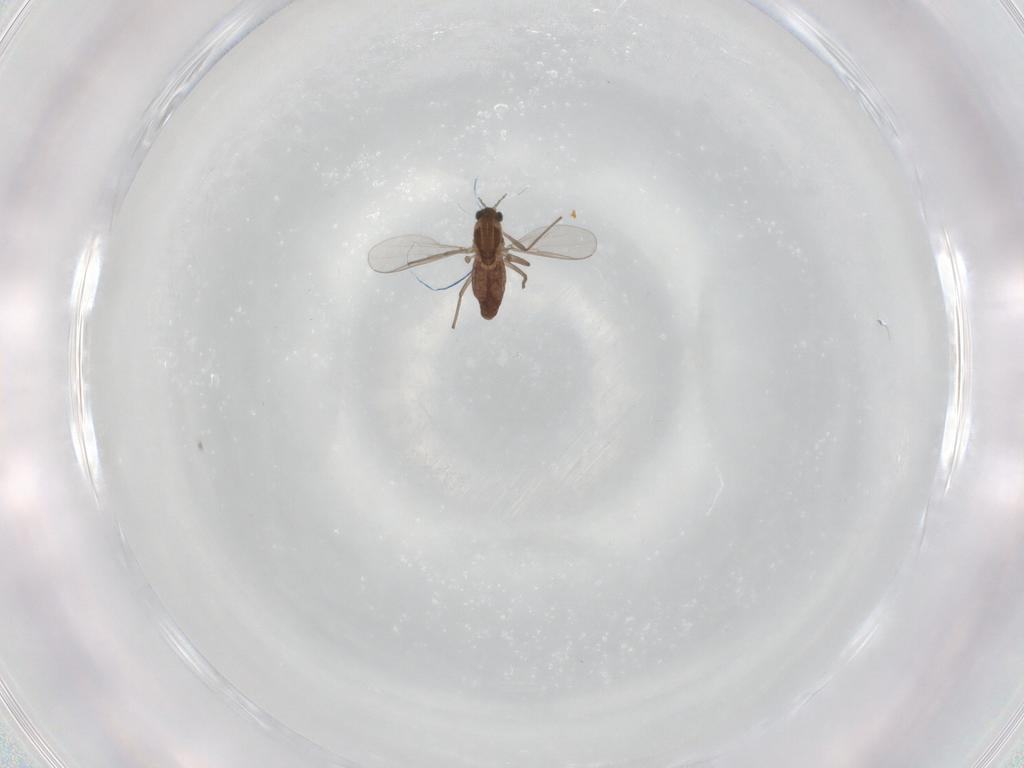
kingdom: Animalia
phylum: Arthropoda
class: Insecta
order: Diptera
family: Chironomidae
